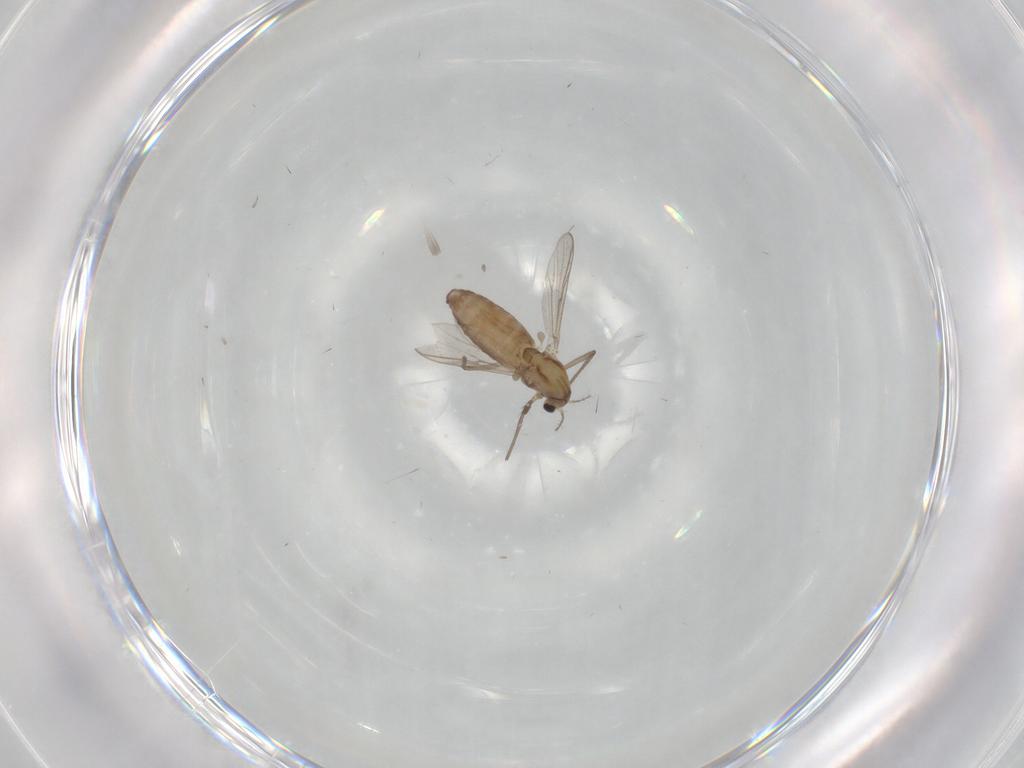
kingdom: Animalia
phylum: Arthropoda
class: Insecta
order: Diptera
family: Chironomidae
